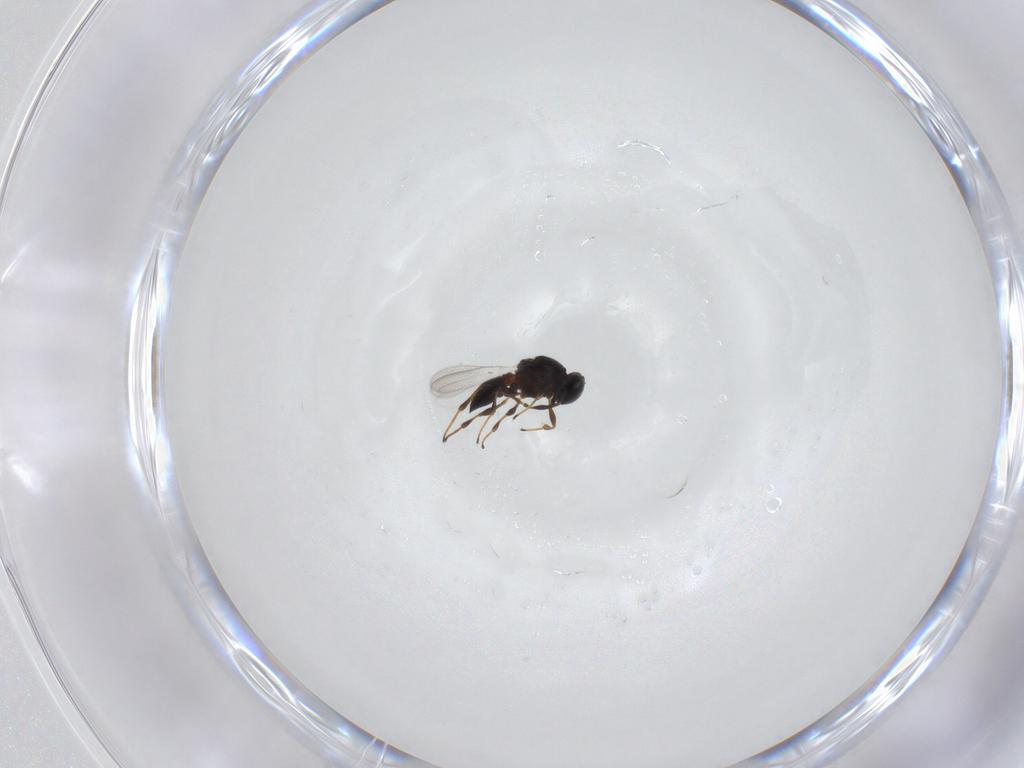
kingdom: Animalia
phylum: Arthropoda
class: Insecta
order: Hymenoptera
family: Platygastridae
